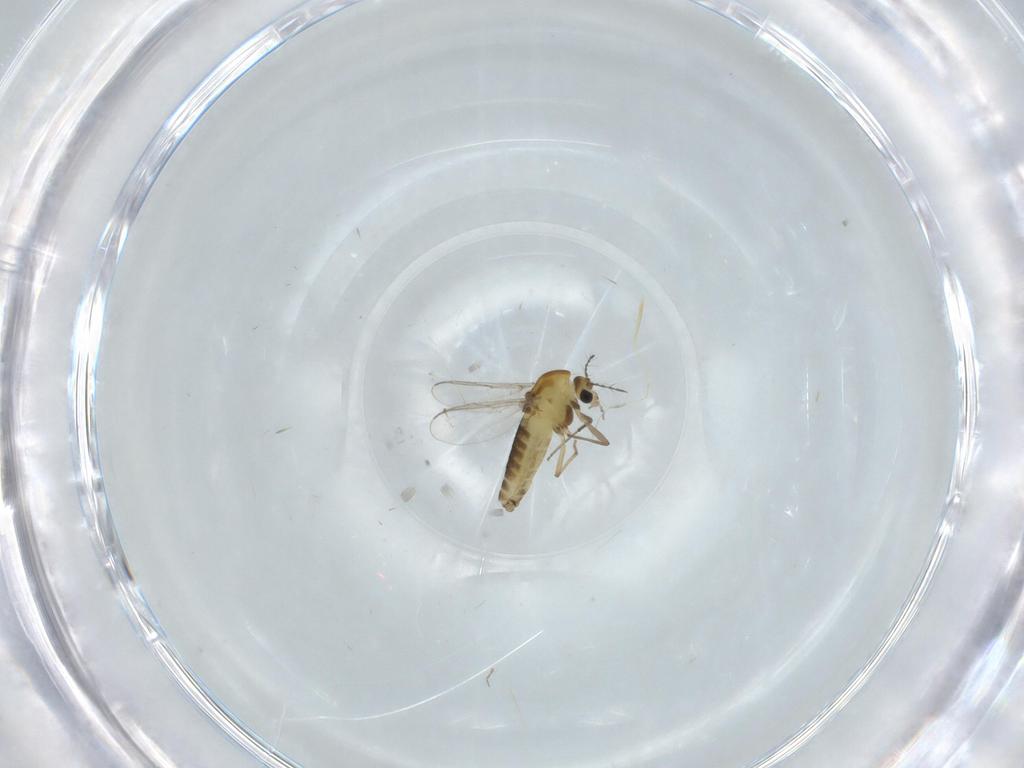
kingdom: Animalia
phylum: Arthropoda
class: Insecta
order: Diptera
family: Chironomidae
